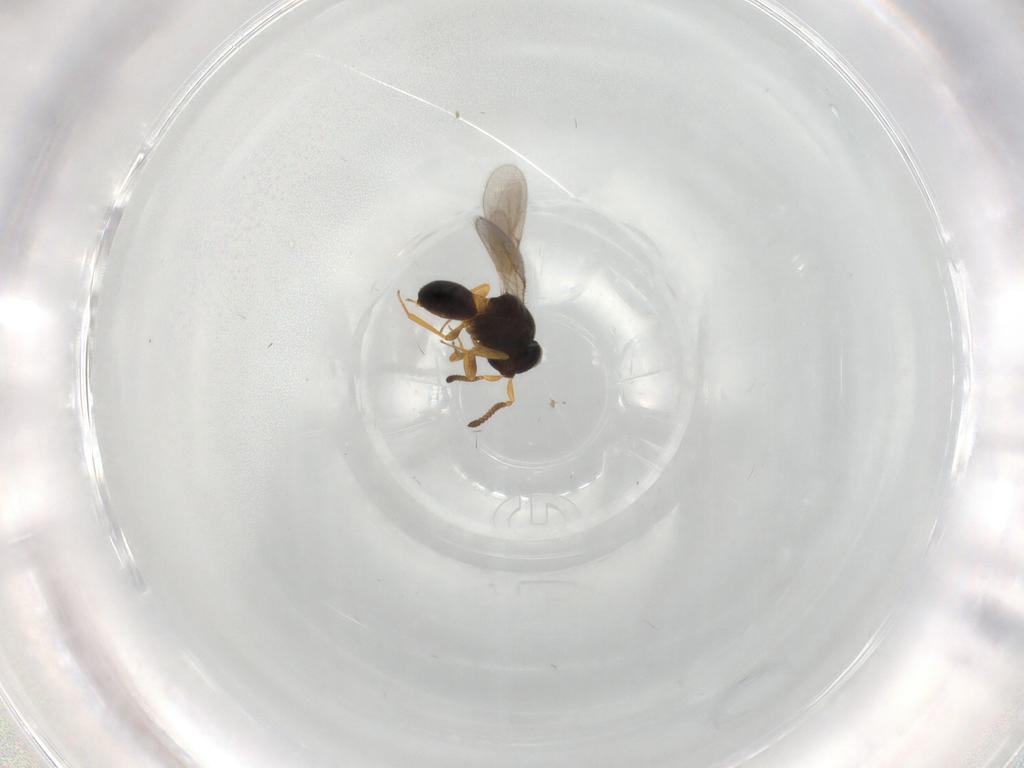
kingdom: Animalia
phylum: Arthropoda
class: Insecta
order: Hymenoptera
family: Scelionidae
